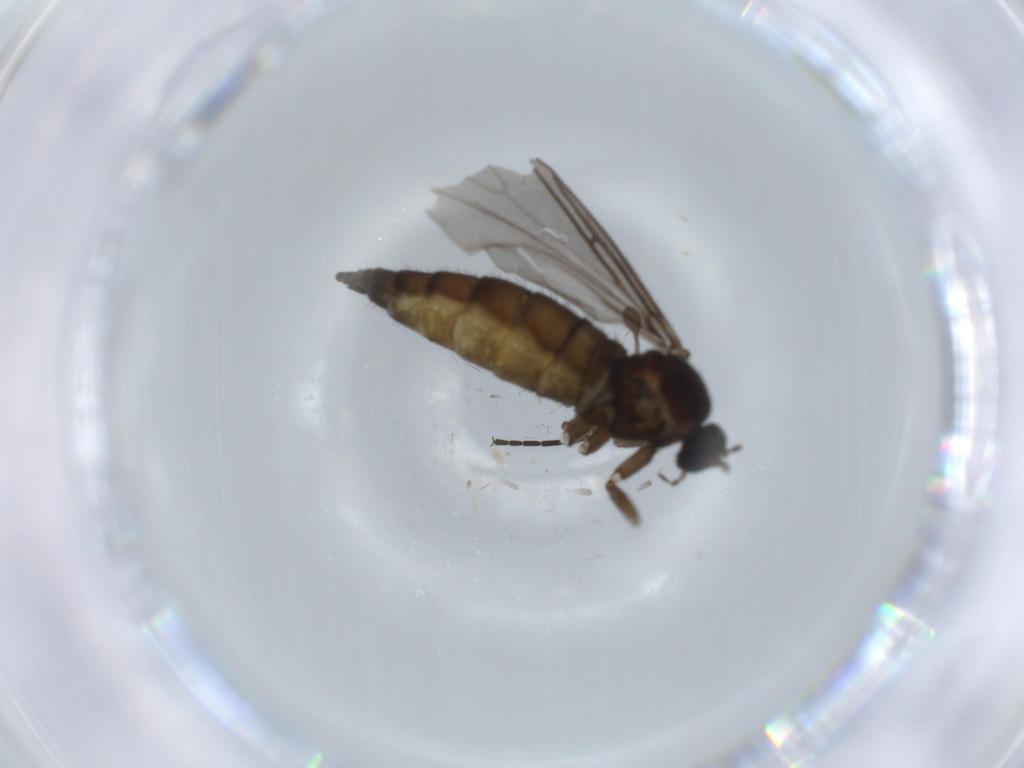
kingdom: Animalia
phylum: Arthropoda
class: Insecta
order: Diptera
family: Sciaridae
